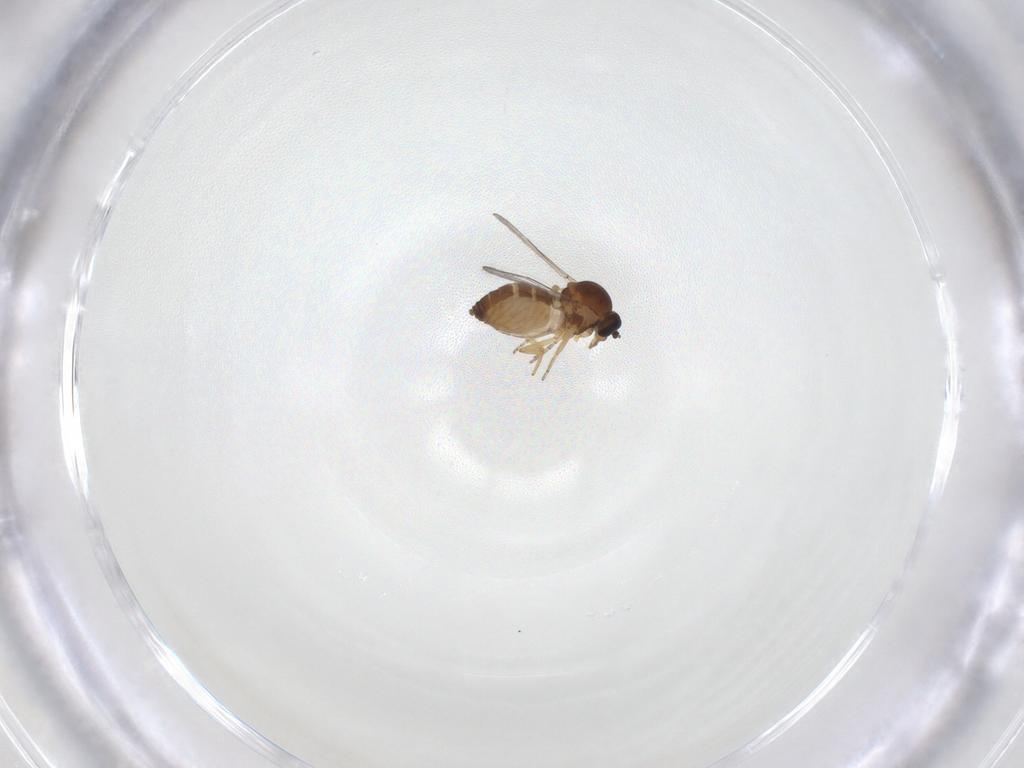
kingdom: Animalia
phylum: Arthropoda
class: Insecta
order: Diptera
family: Ceratopogonidae
